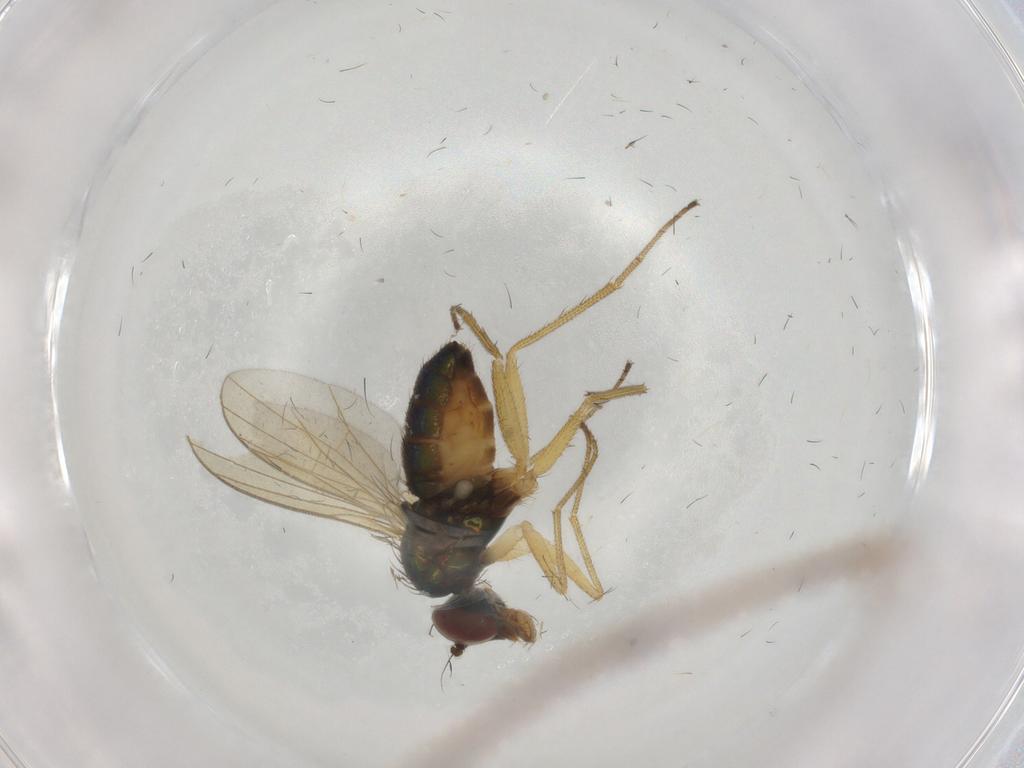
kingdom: Animalia
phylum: Arthropoda
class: Insecta
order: Diptera
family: Dolichopodidae
